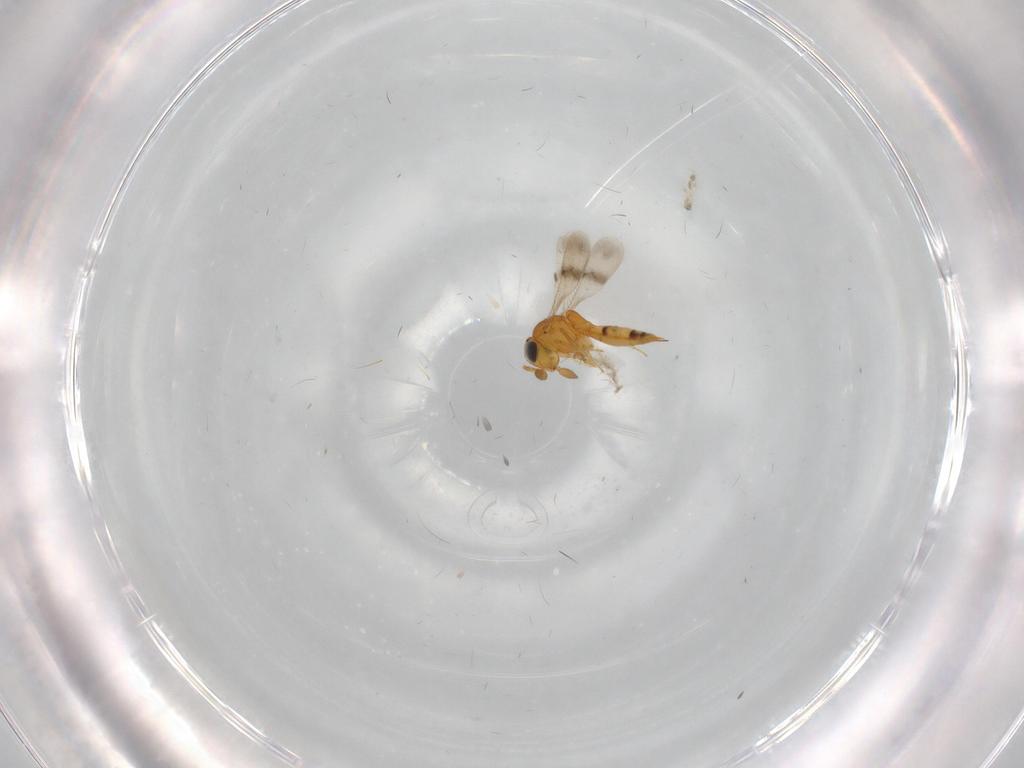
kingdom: Animalia
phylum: Arthropoda
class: Insecta
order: Hymenoptera
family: Scelionidae
